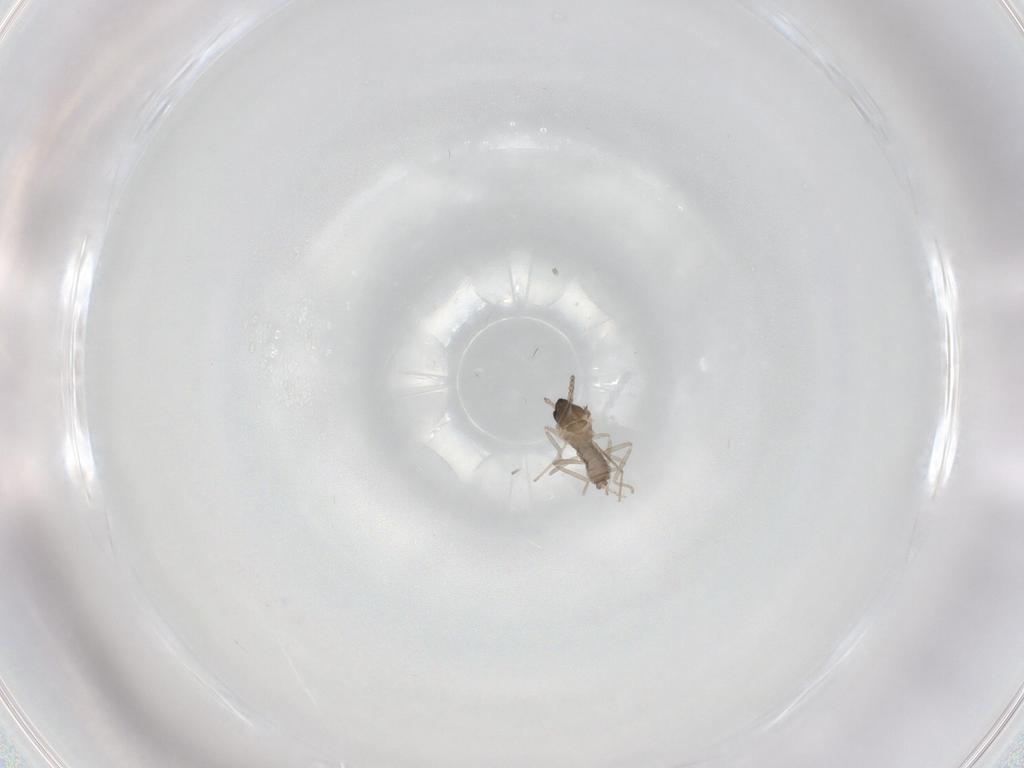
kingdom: Animalia
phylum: Arthropoda
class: Insecta
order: Diptera
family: Cecidomyiidae
